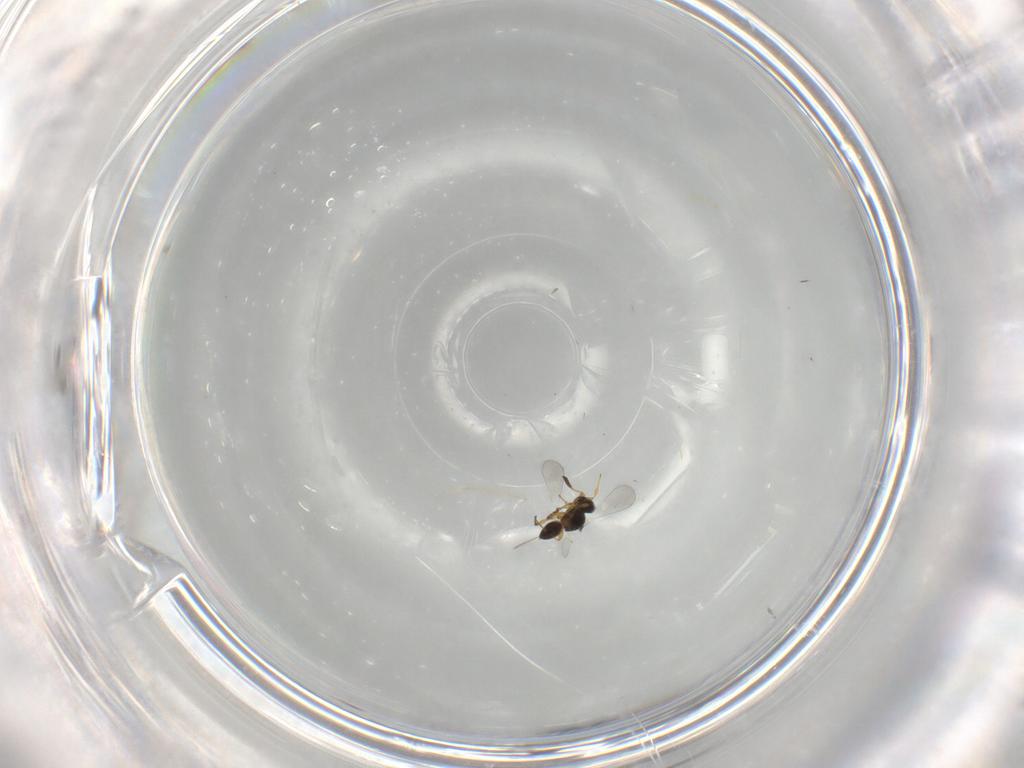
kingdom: Animalia
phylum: Arthropoda
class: Insecta
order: Hymenoptera
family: Platygastridae
